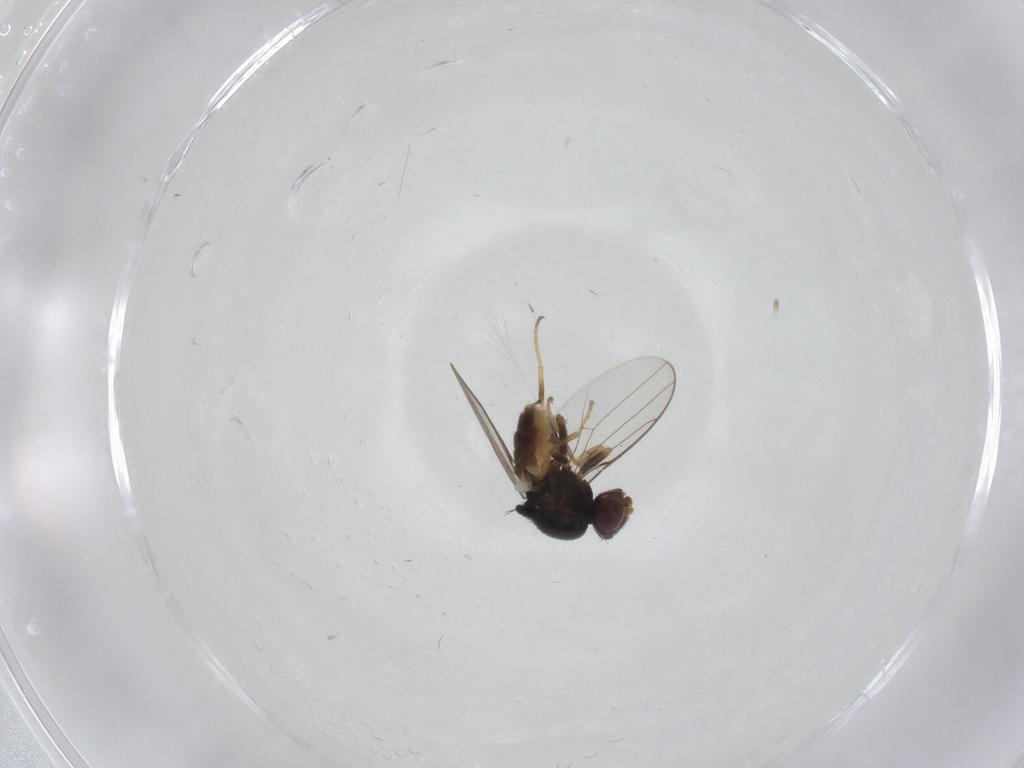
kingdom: Animalia
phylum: Arthropoda
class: Insecta
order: Diptera
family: Chloropidae
